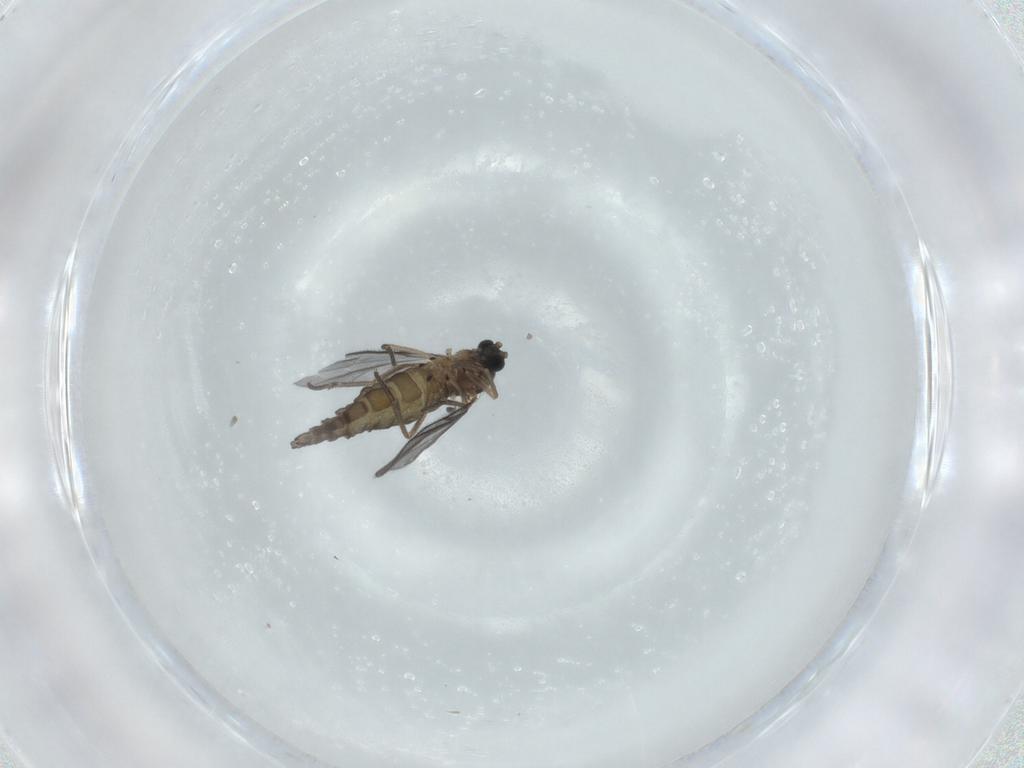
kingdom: Animalia
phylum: Arthropoda
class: Insecta
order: Diptera
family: Sciaridae
